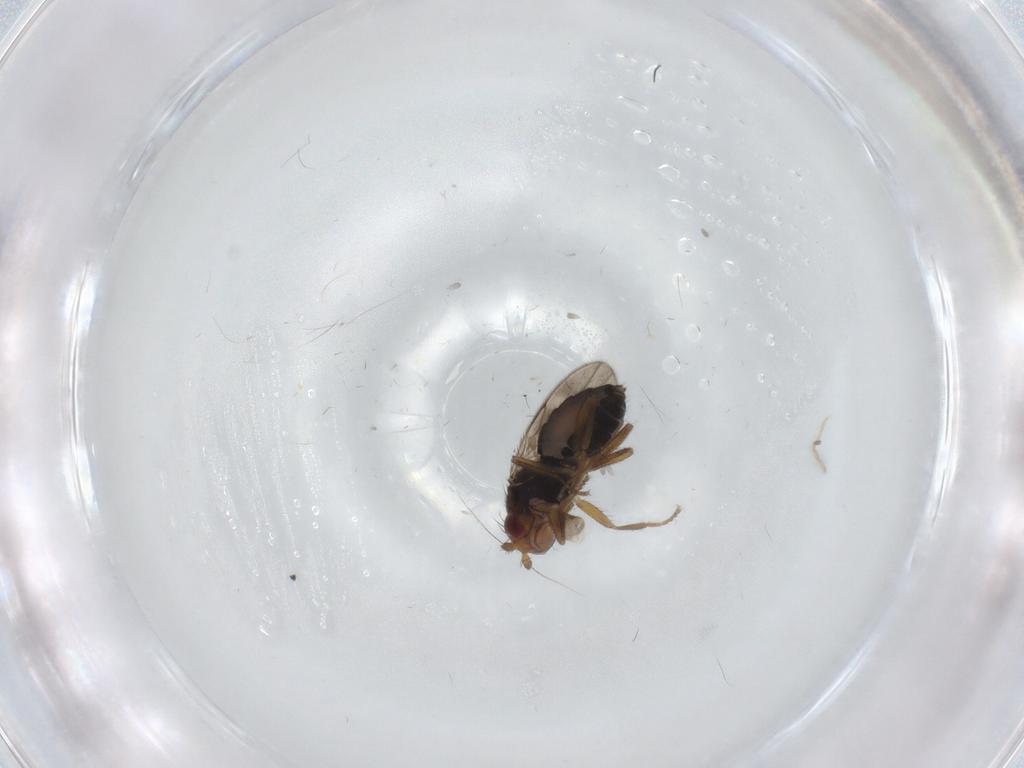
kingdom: Animalia
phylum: Arthropoda
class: Insecta
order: Diptera
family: Sphaeroceridae
